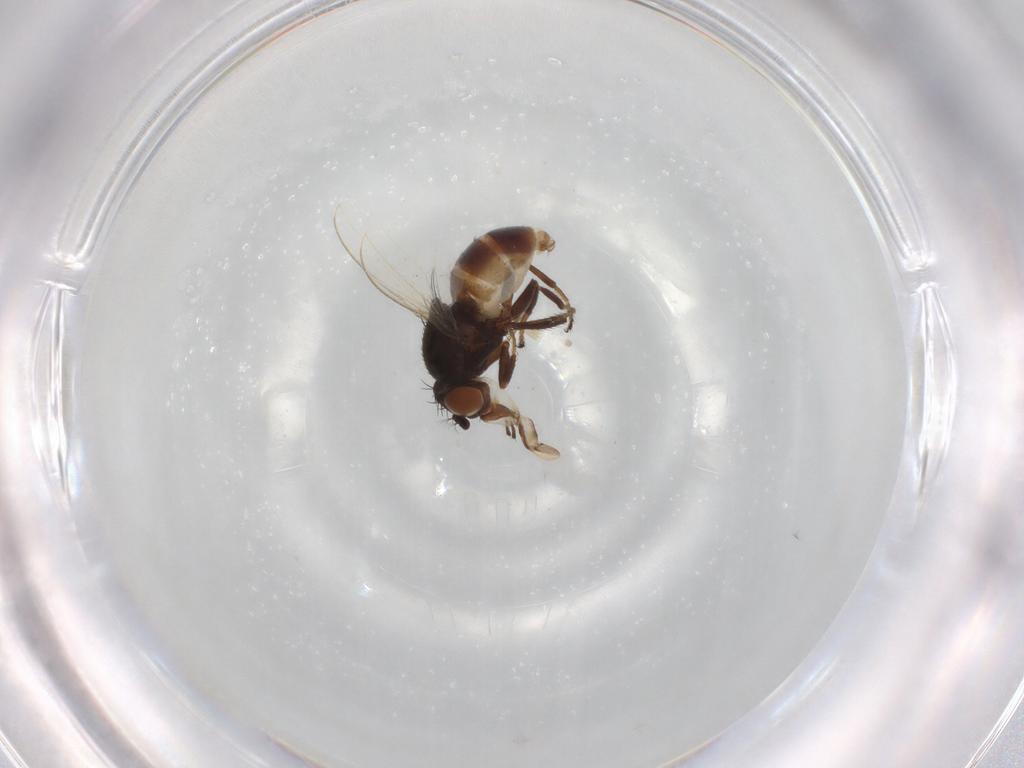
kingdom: Animalia
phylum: Arthropoda
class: Insecta
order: Diptera
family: Ephydridae
